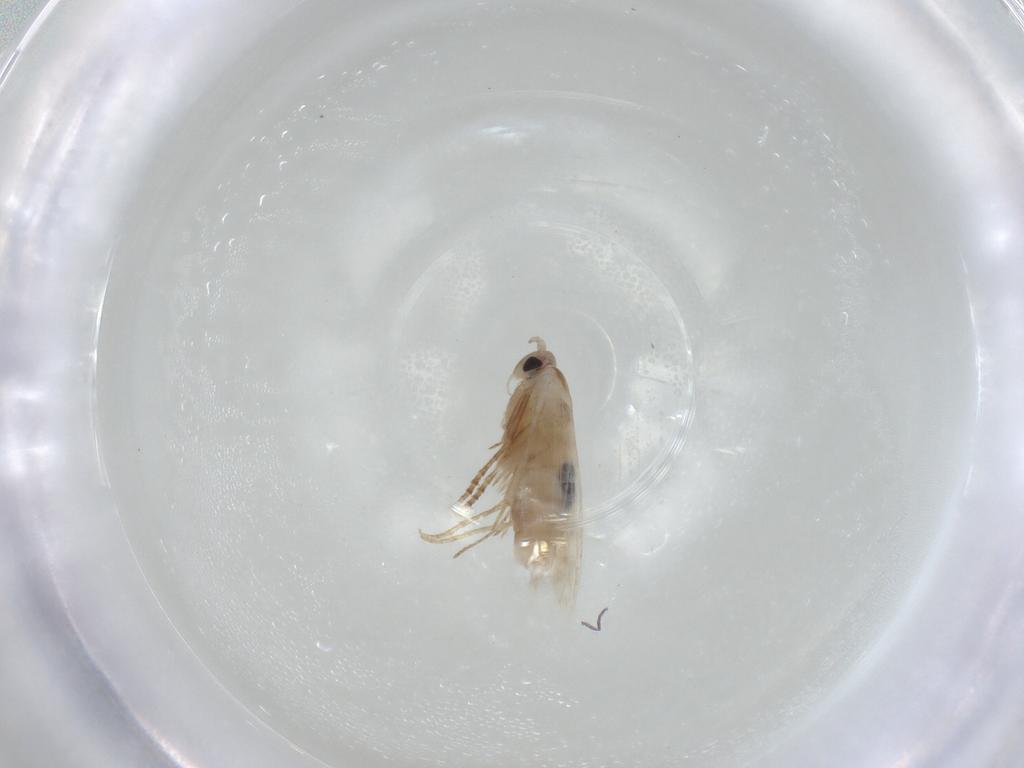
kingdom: Animalia
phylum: Arthropoda
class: Insecta
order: Lepidoptera
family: Bucculatricidae
